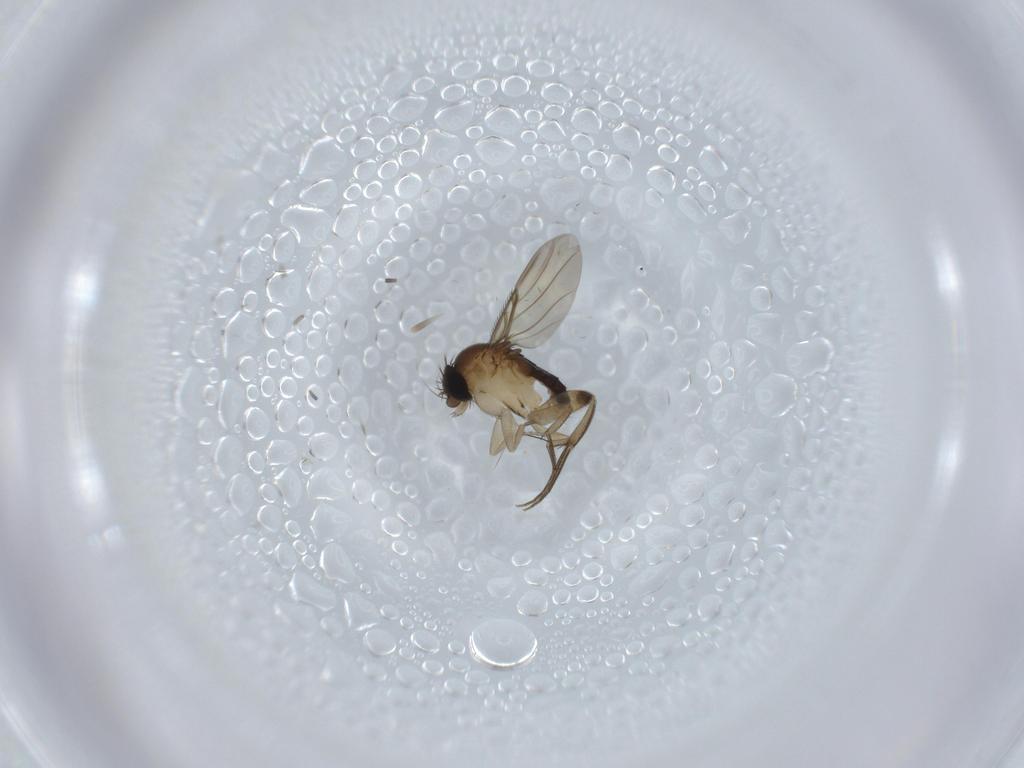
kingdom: Animalia
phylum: Arthropoda
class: Insecta
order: Diptera
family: Phoridae
